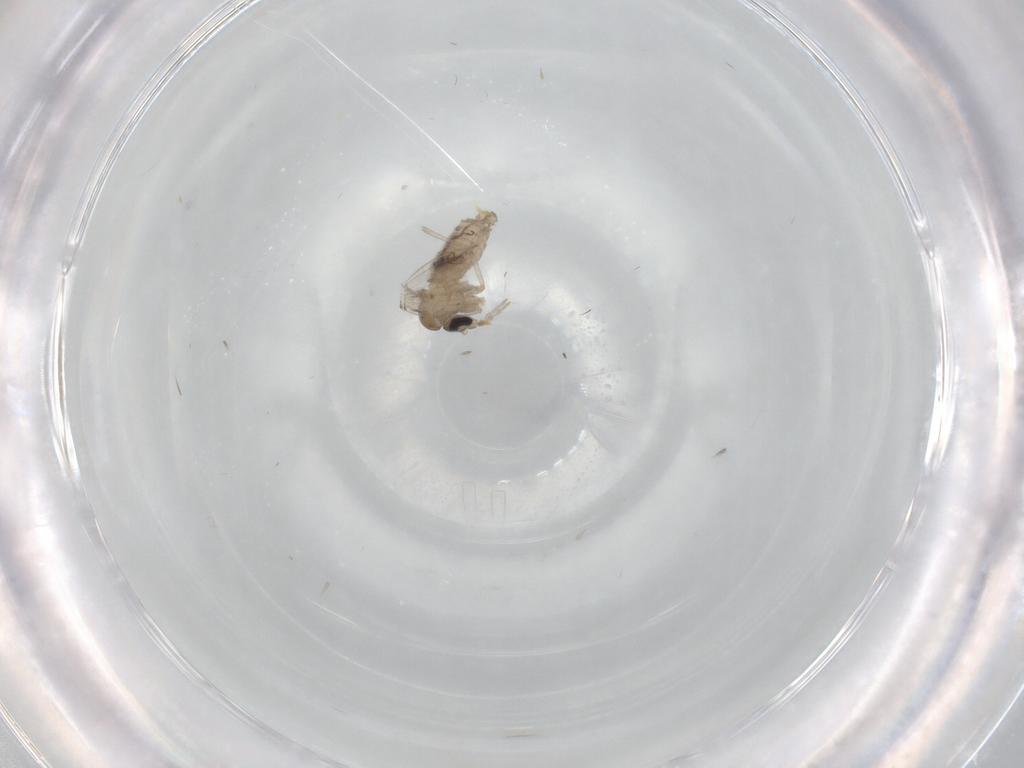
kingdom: Animalia
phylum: Arthropoda
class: Insecta
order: Diptera
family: Psychodidae
